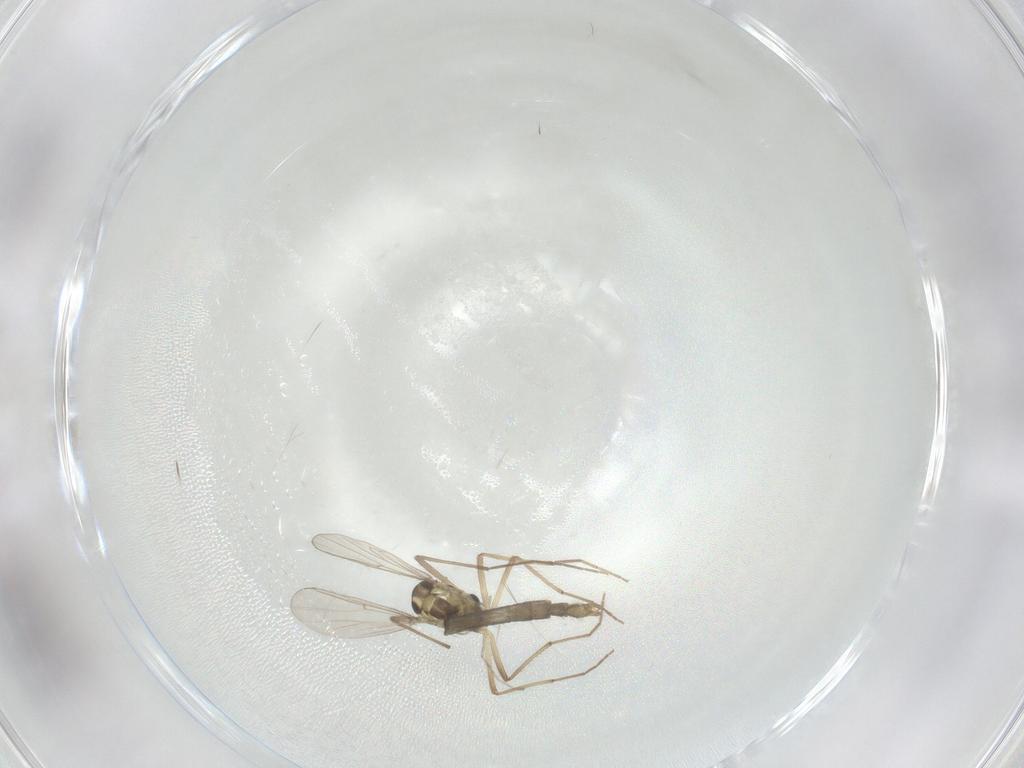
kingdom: Animalia
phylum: Arthropoda
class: Insecta
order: Diptera
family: Chironomidae
